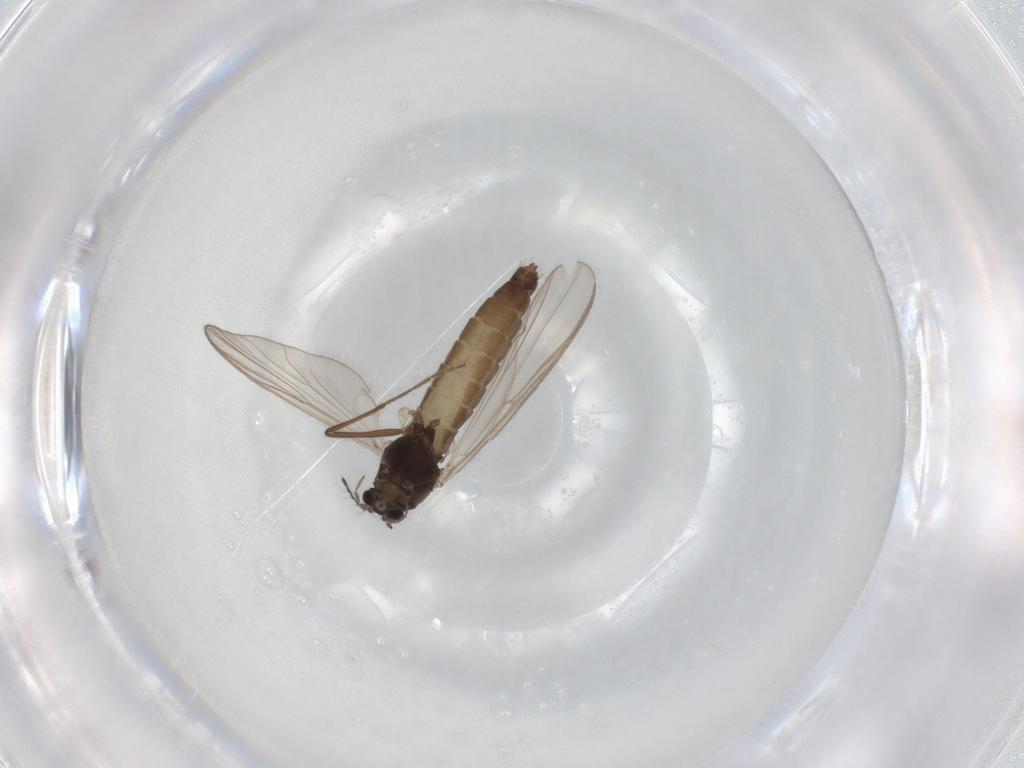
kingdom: Animalia
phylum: Arthropoda
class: Insecta
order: Diptera
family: Chironomidae
